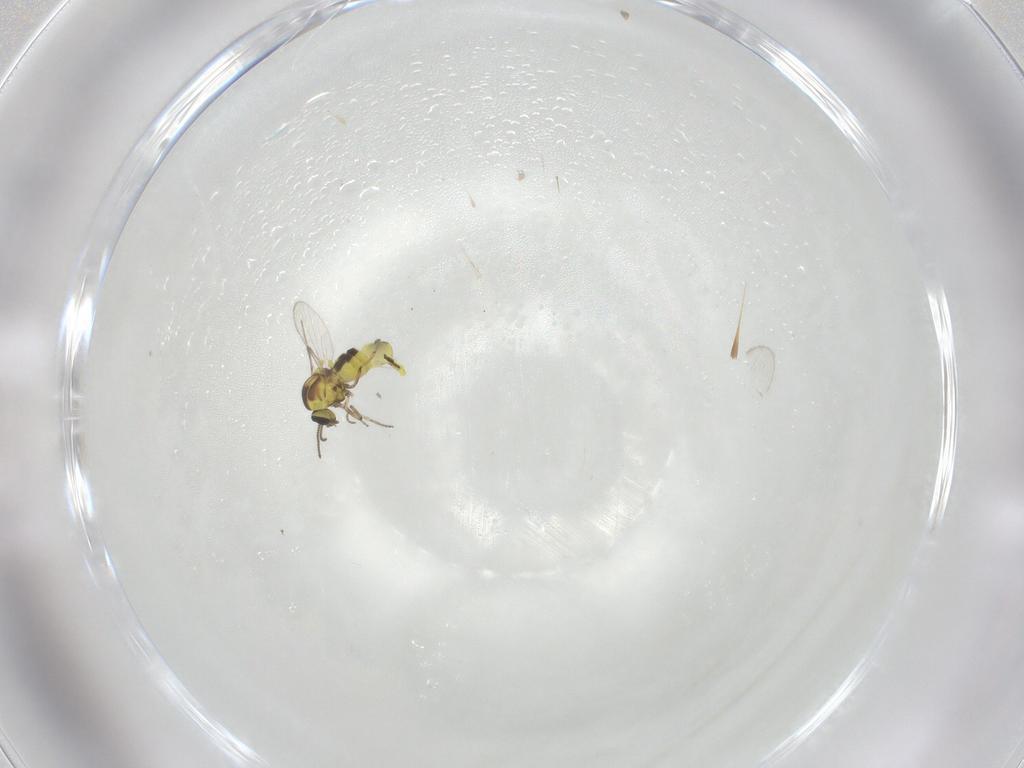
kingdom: Animalia
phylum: Arthropoda
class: Insecta
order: Diptera
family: Ceratopogonidae
